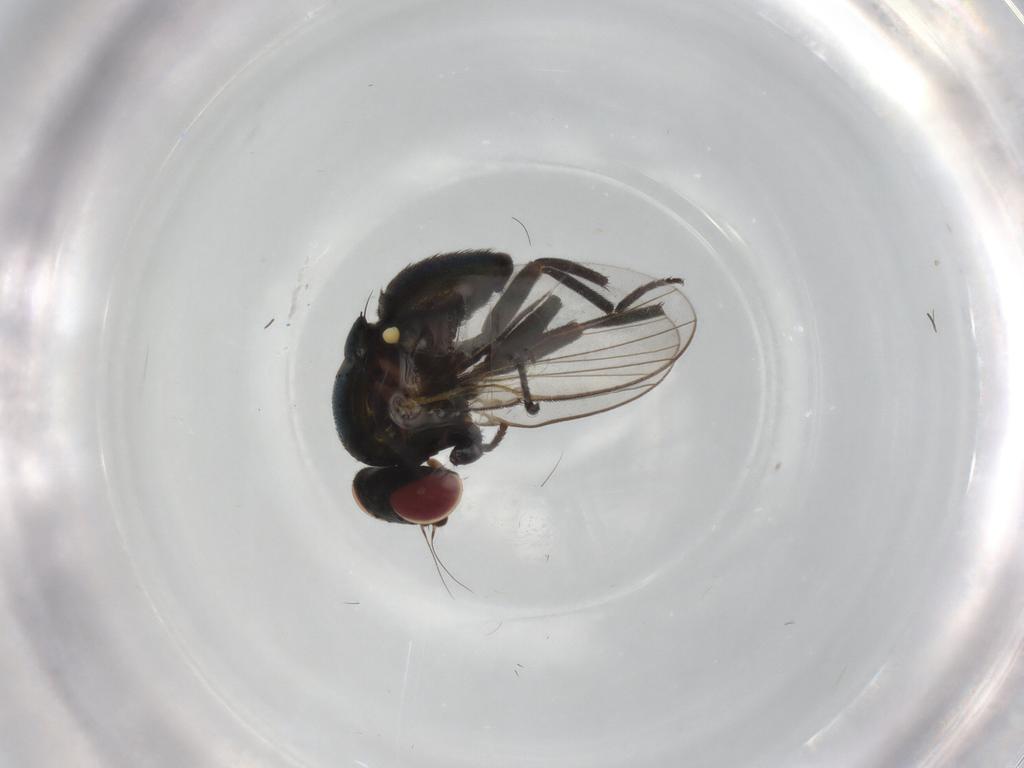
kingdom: Animalia
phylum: Arthropoda
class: Insecta
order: Diptera
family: Agromyzidae
